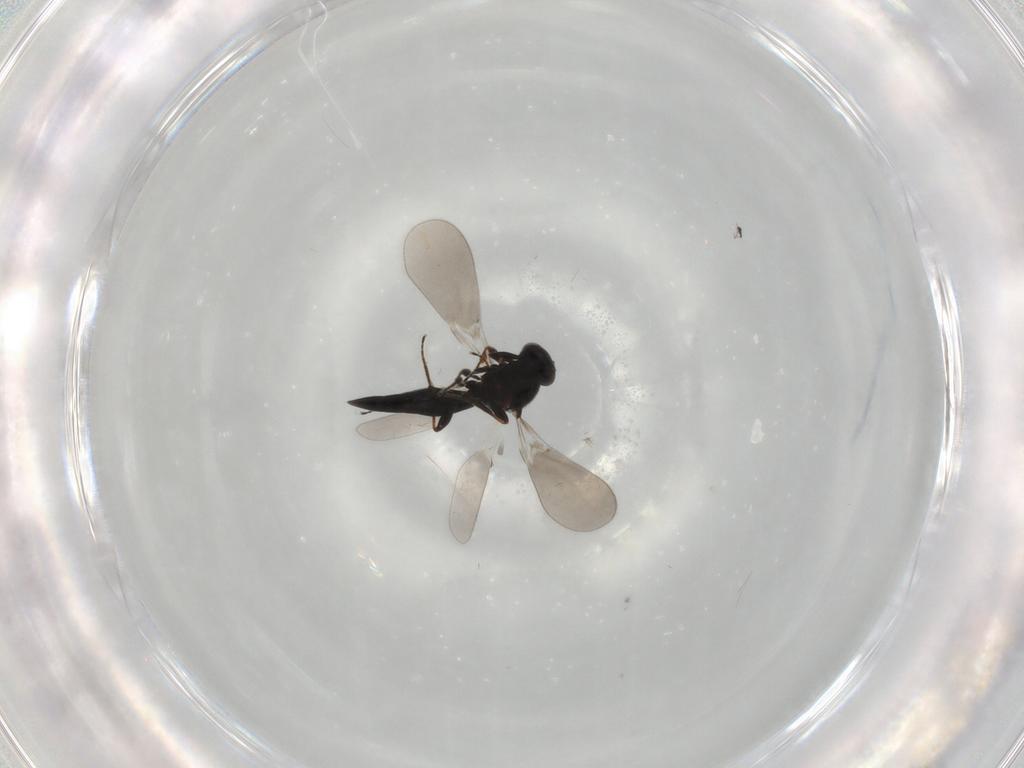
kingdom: Animalia
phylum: Arthropoda
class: Insecta
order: Hymenoptera
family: Platygastridae
